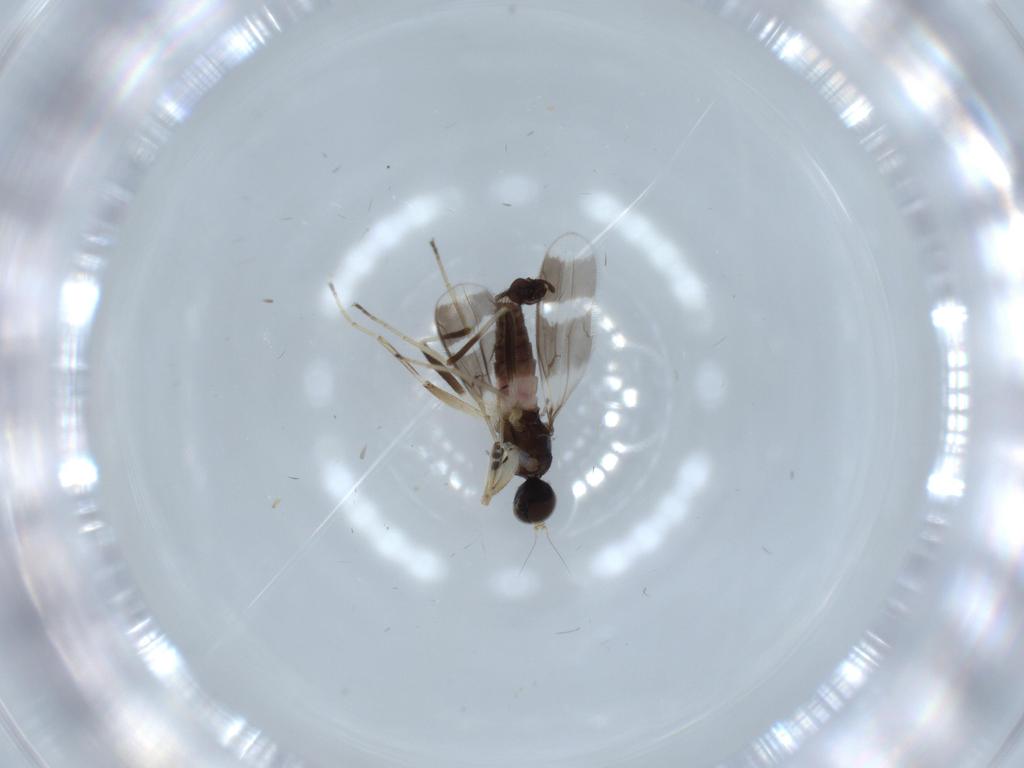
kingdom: Animalia
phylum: Arthropoda
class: Insecta
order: Diptera
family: Hybotidae
